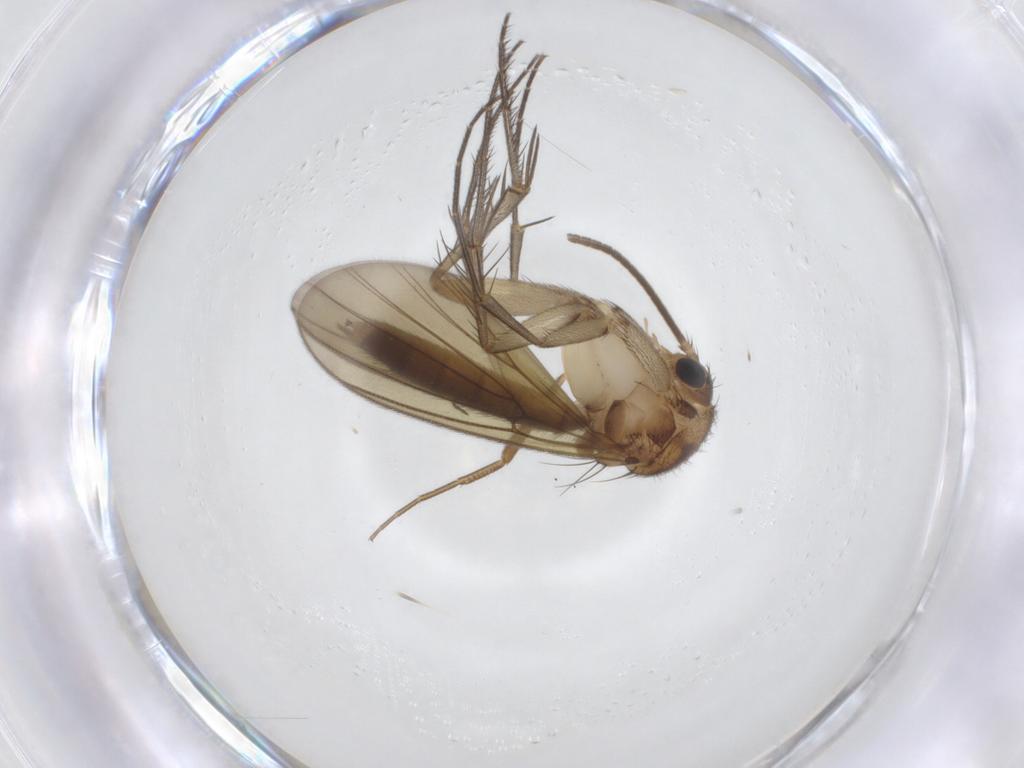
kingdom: Animalia
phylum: Arthropoda
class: Insecta
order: Diptera
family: Mycetophilidae
